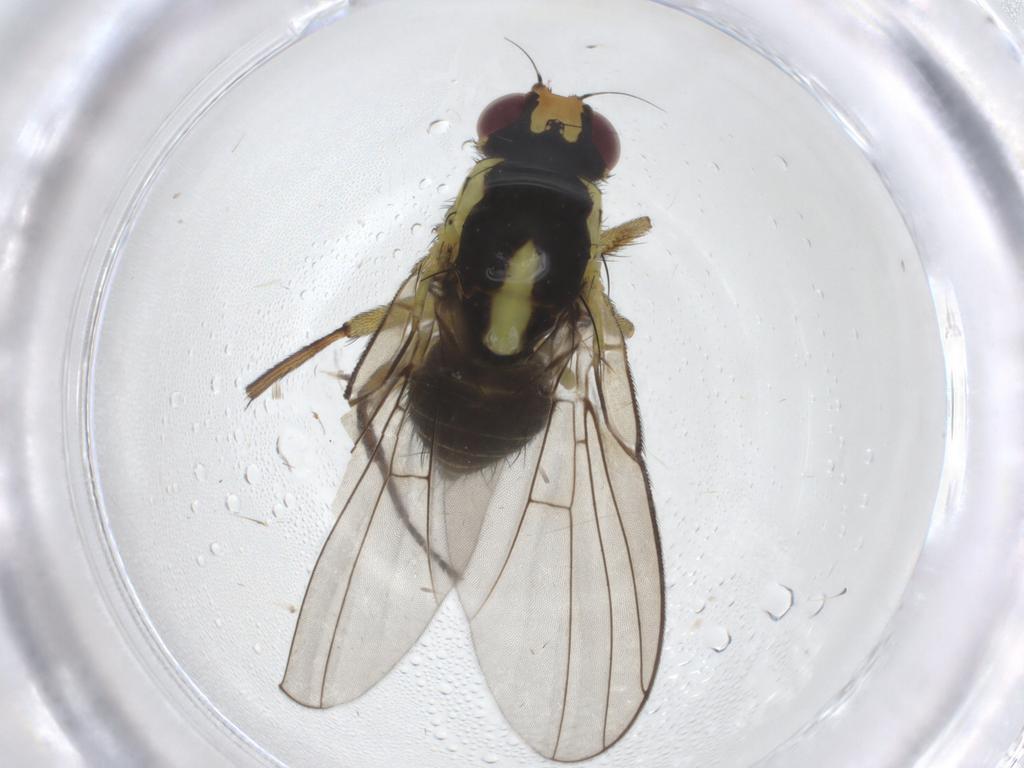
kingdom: Animalia
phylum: Arthropoda
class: Insecta
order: Diptera
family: Agromyzidae
